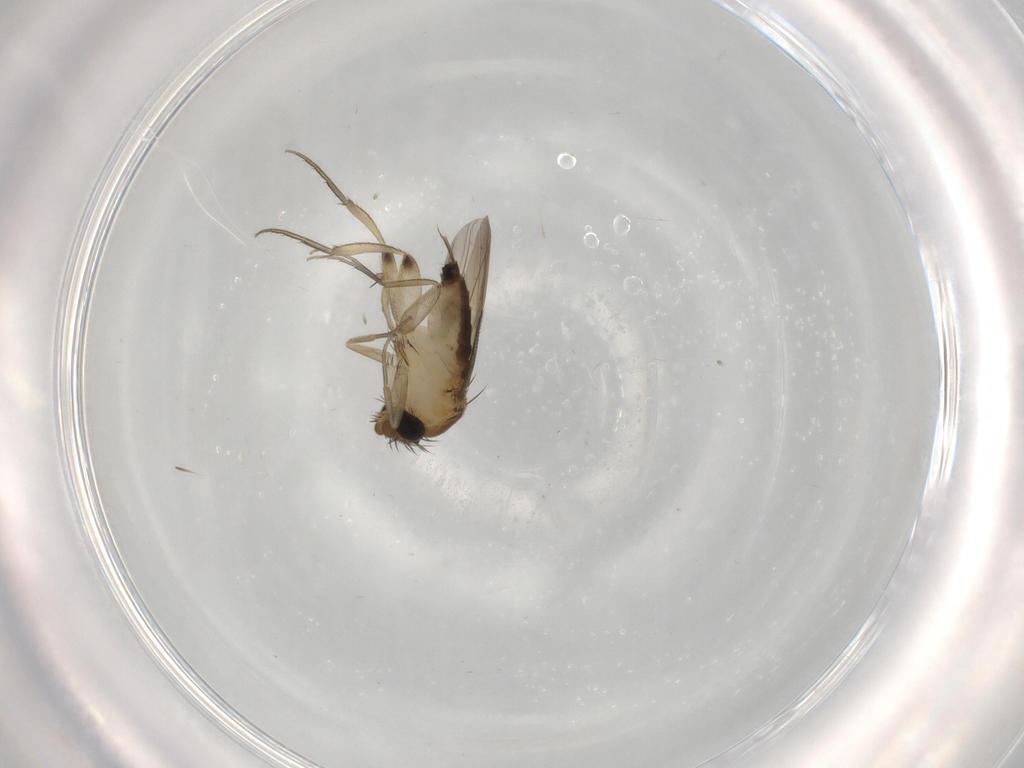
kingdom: Animalia
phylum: Arthropoda
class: Insecta
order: Diptera
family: Phoridae
